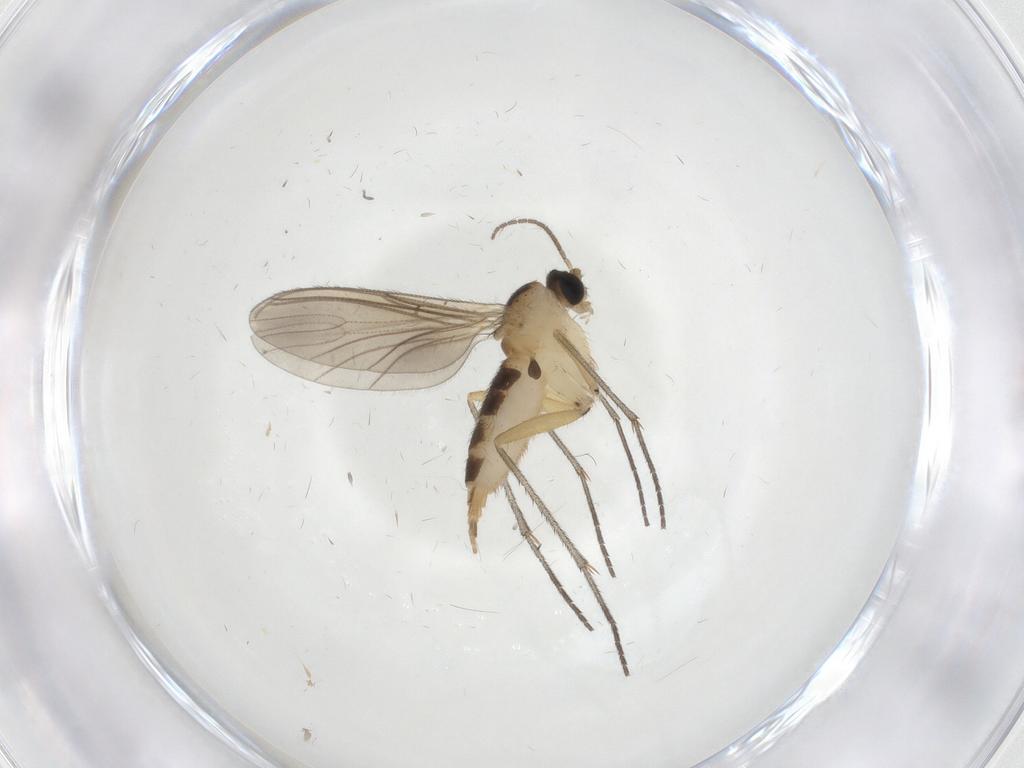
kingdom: Animalia
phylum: Arthropoda
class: Insecta
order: Diptera
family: Sciaridae
